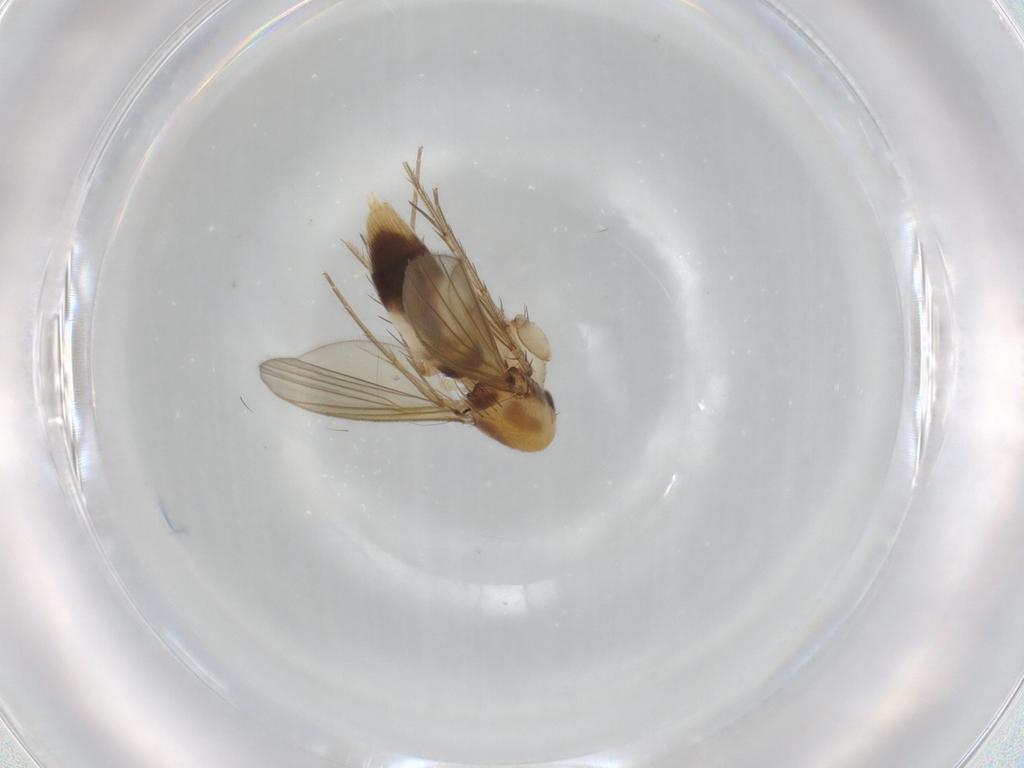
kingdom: Animalia
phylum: Arthropoda
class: Insecta
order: Diptera
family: Mycetophilidae
